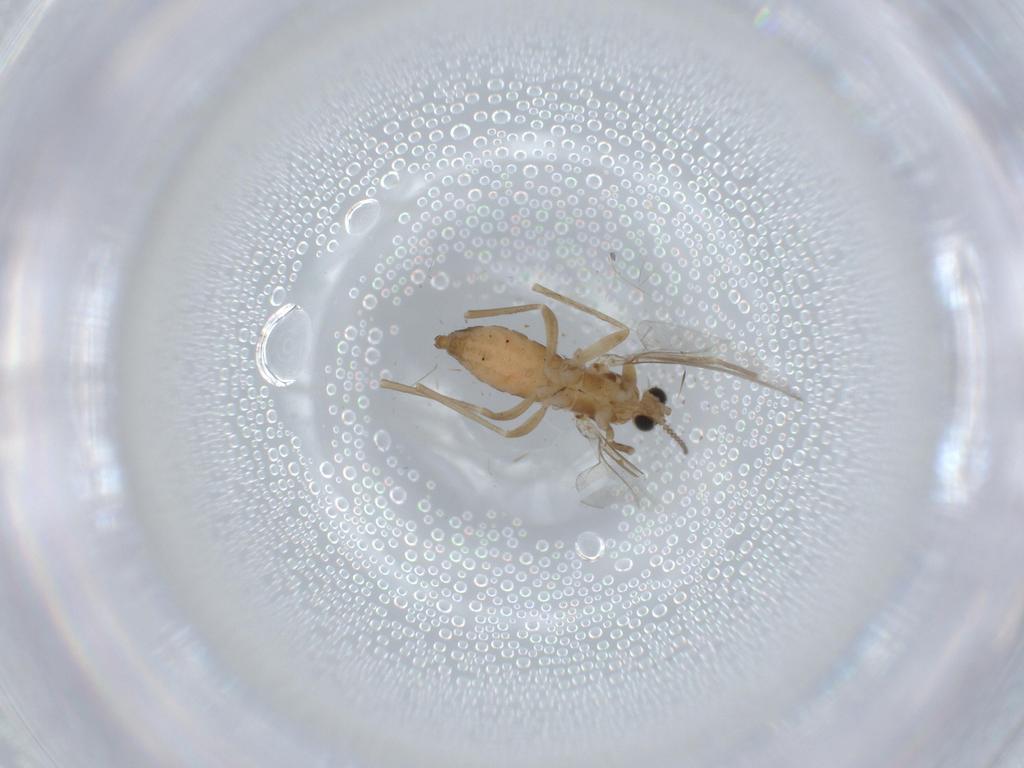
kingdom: Animalia
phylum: Arthropoda
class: Insecta
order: Diptera
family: Cecidomyiidae
